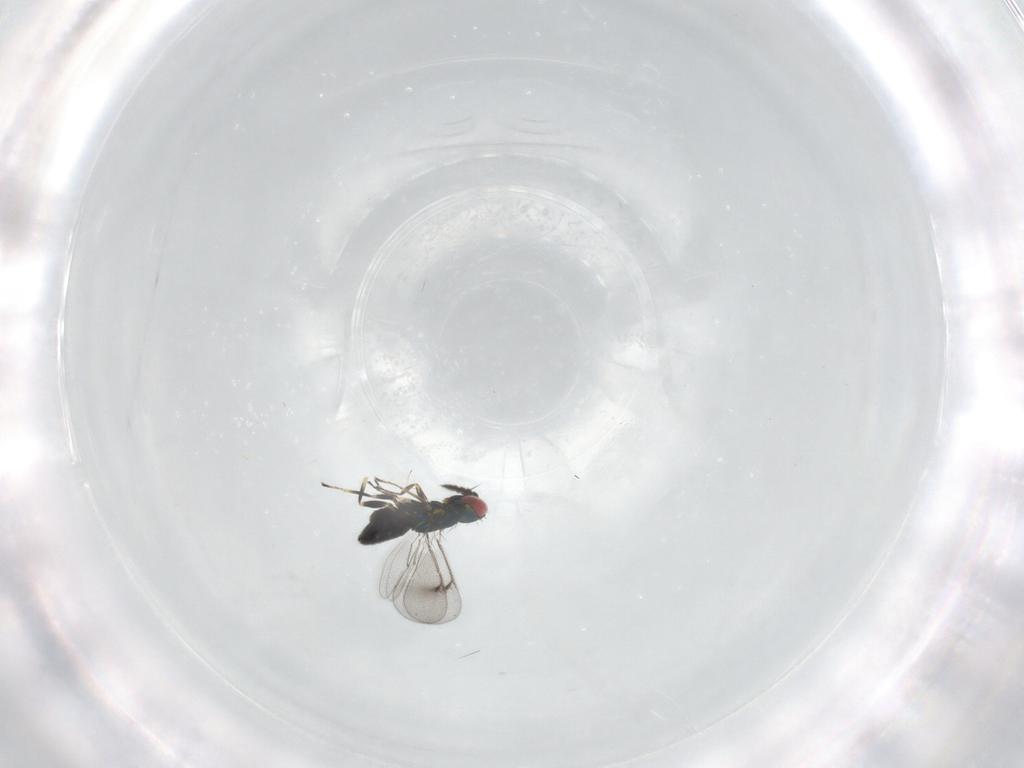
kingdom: Animalia
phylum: Arthropoda
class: Insecta
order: Hymenoptera
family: Eulophidae
